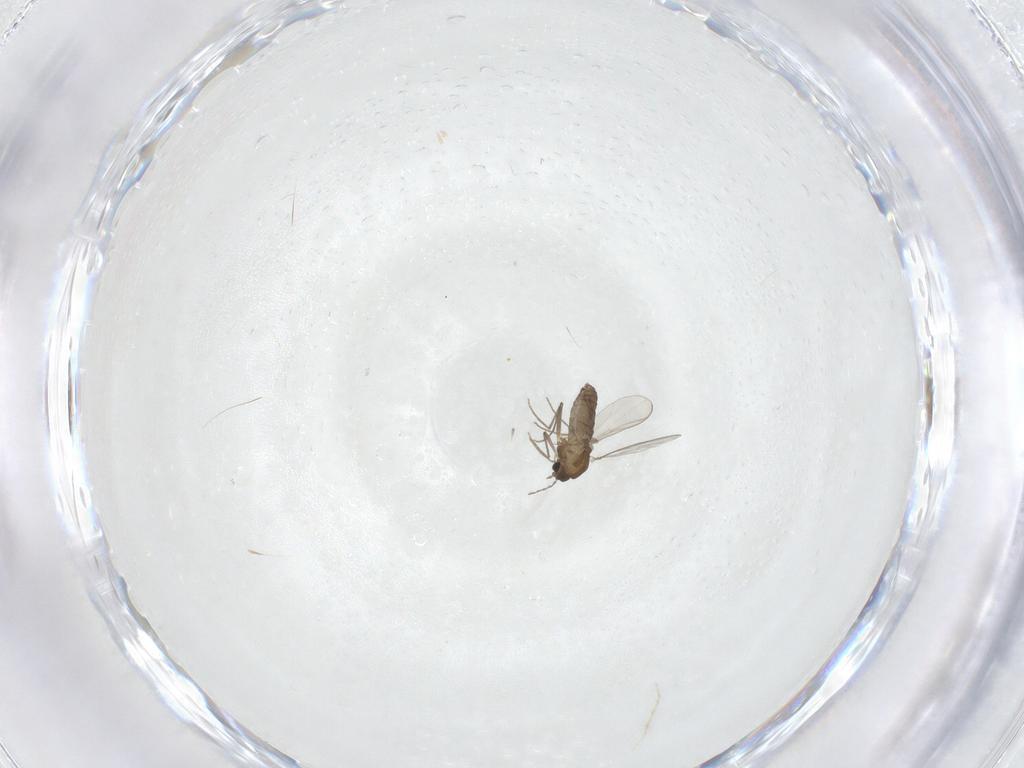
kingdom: Animalia
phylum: Arthropoda
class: Insecta
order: Diptera
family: Chironomidae
